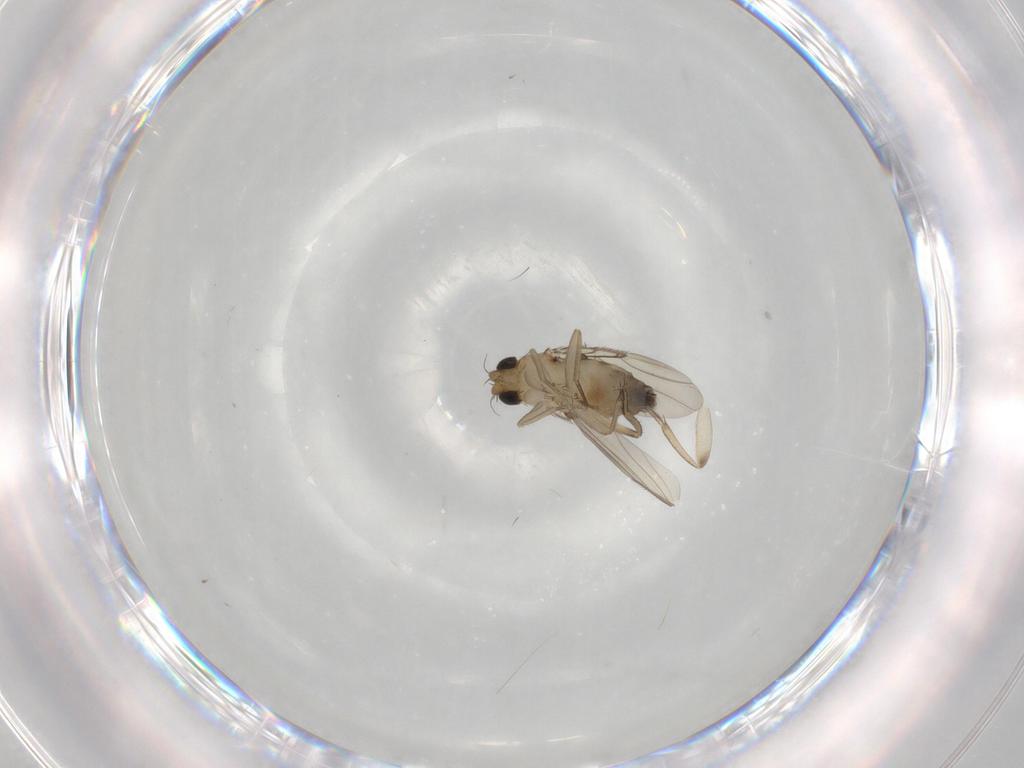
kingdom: Animalia
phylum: Arthropoda
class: Insecta
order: Diptera
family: Phoridae
